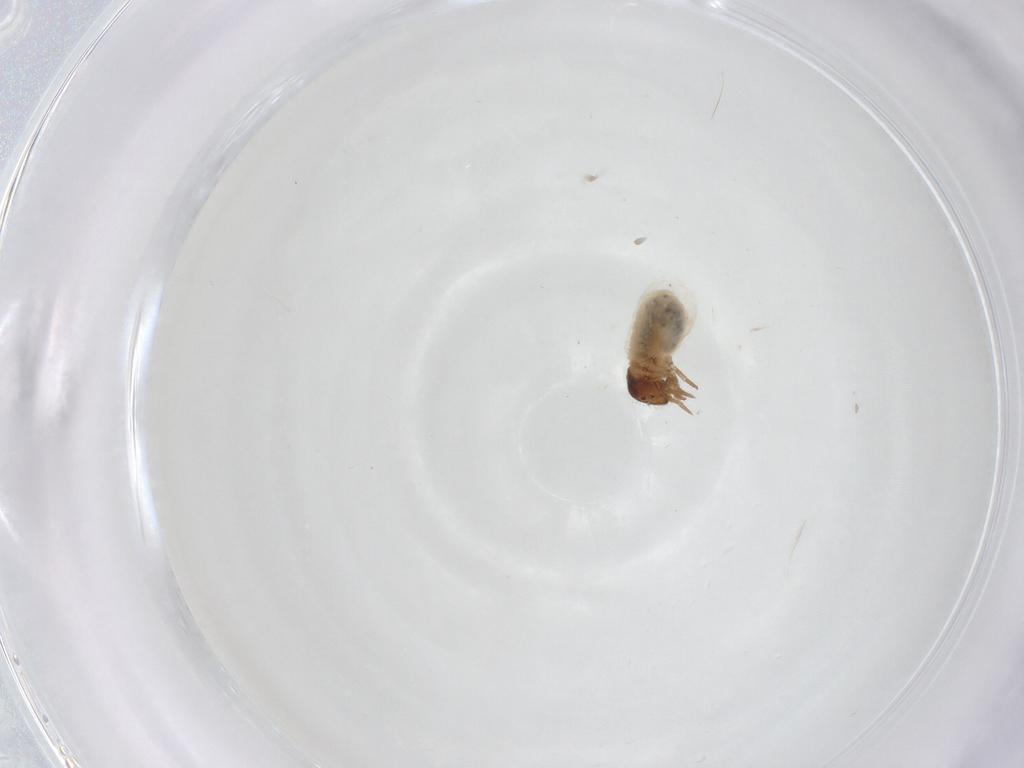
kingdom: Animalia
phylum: Arthropoda
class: Insecta
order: Coleoptera
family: Chrysomelidae
